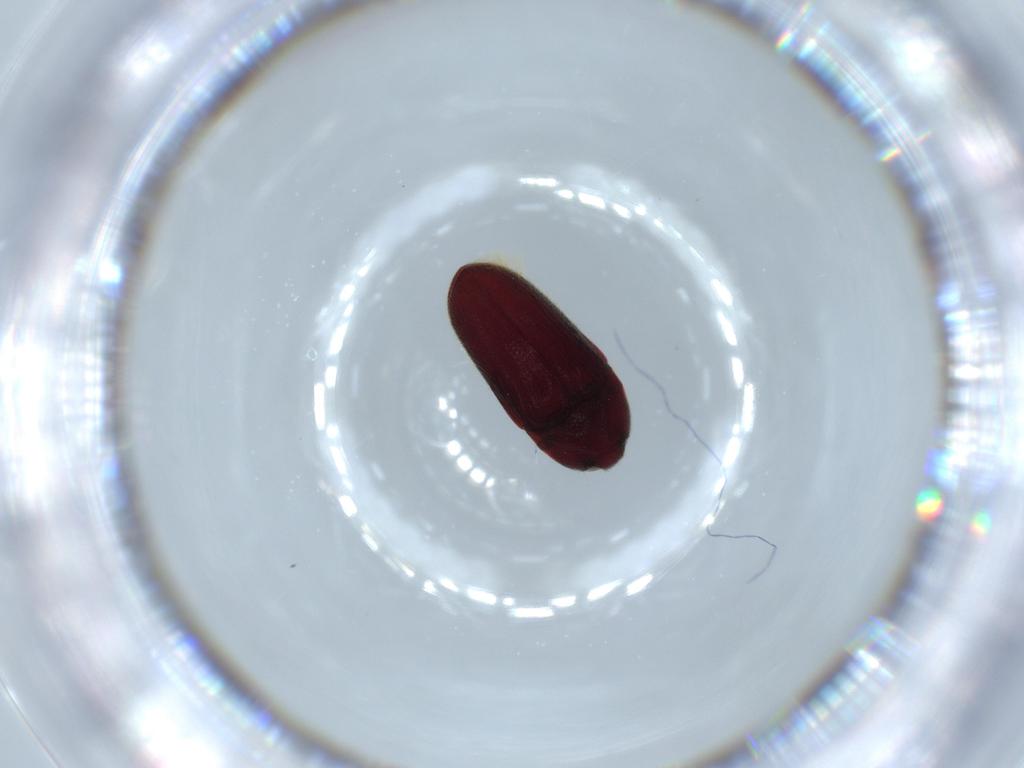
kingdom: Animalia
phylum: Arthropoda
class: Insecta
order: Coleoptera
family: Throscidae
